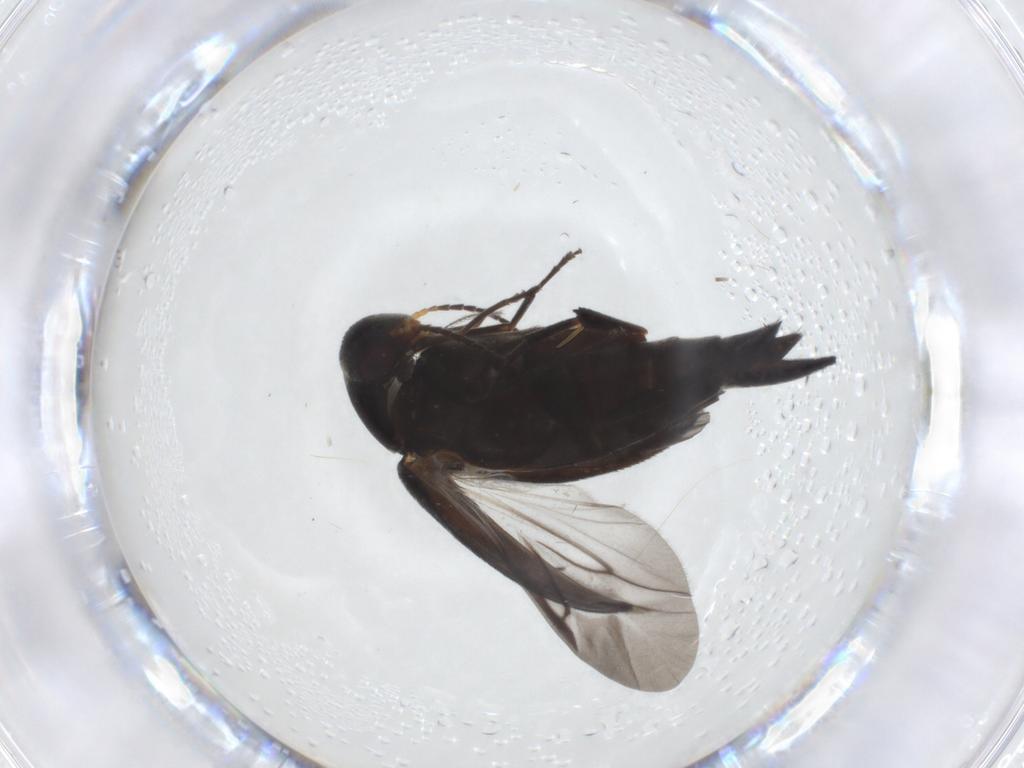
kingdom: Animalia
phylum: Arthropoda
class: Insecta
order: Coleoptera
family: Mordellidae
